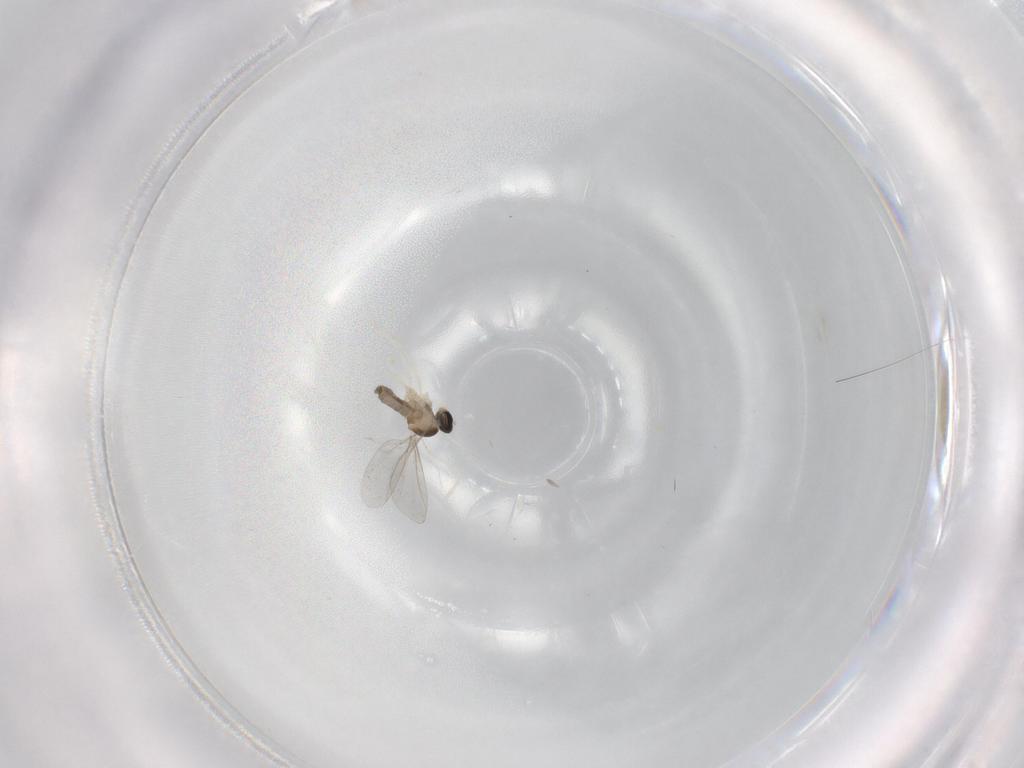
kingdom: Animalia
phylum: Arthropoda
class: Insecta
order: Diptera
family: Cecidomyiidae
